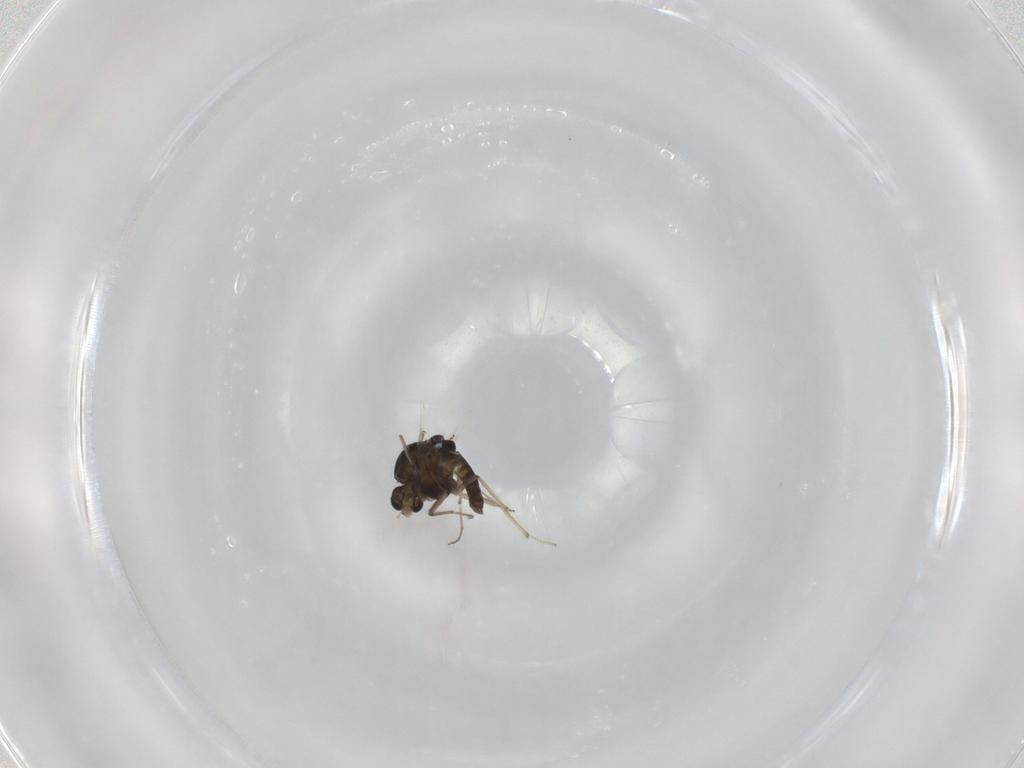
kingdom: Animalia
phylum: Arthropoda
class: Insecta
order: Diptera
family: Chironomidae
